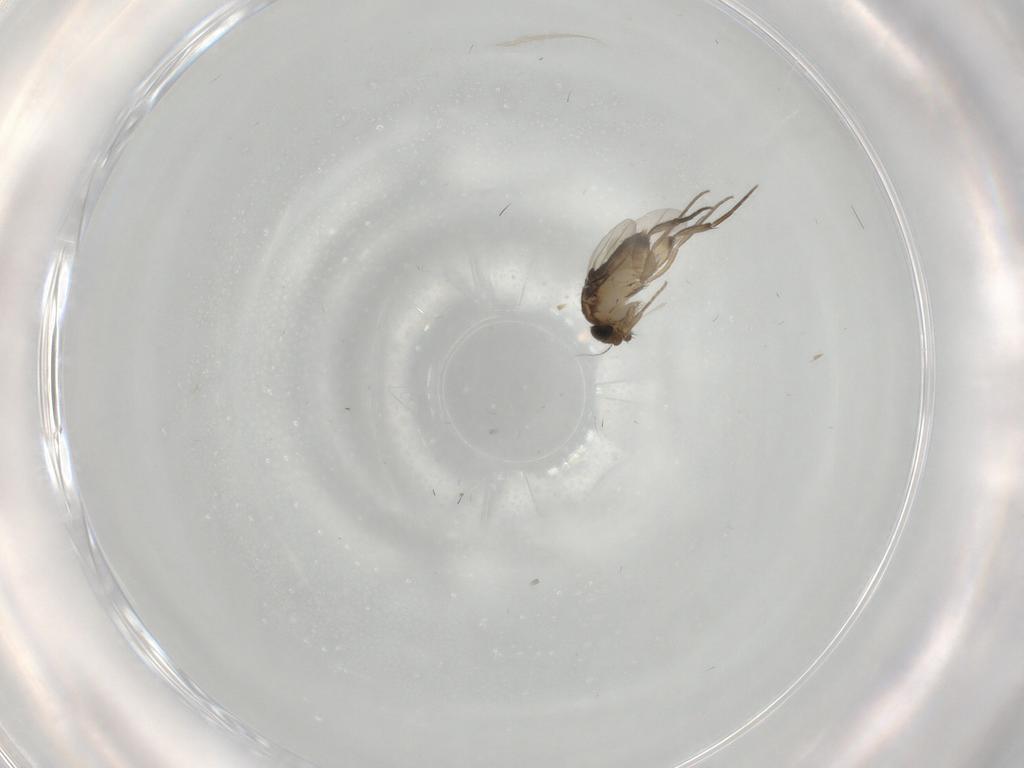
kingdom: Animalia
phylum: Arthropoda
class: Insecta
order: Diptera
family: Phoridae
